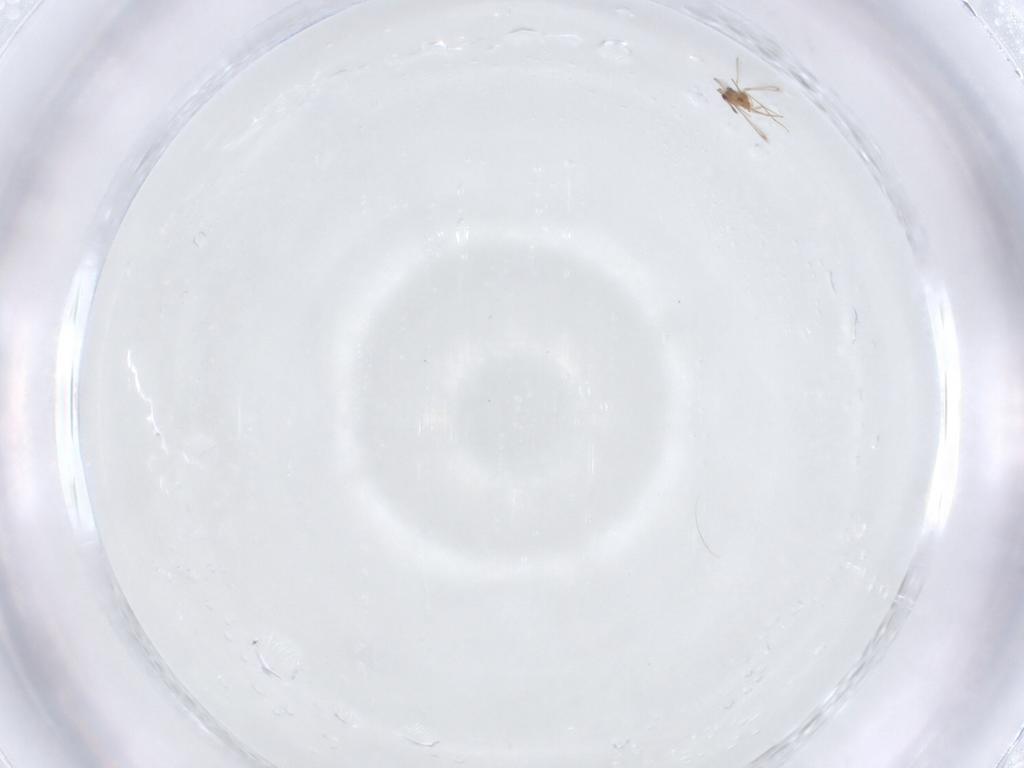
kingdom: Animalia
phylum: Arthropoda
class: Insecta
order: Hymenoptera
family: Mymaridae
